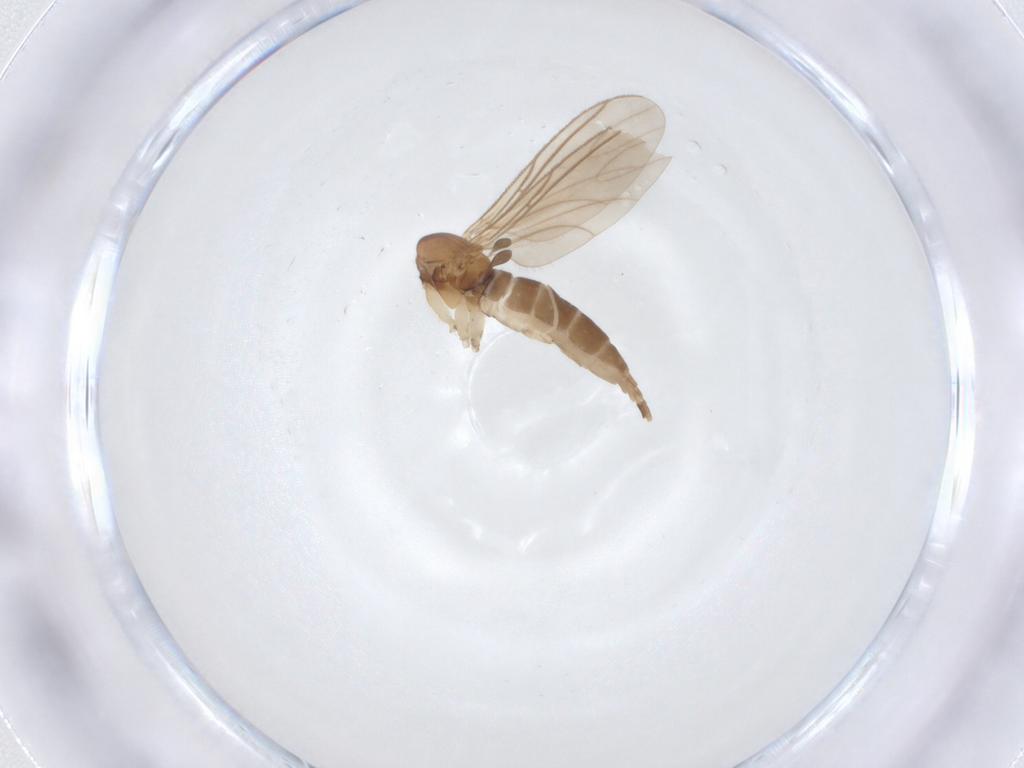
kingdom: Animalia
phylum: Arthropoda
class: Insecta
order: Diptera
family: Sciaridae
